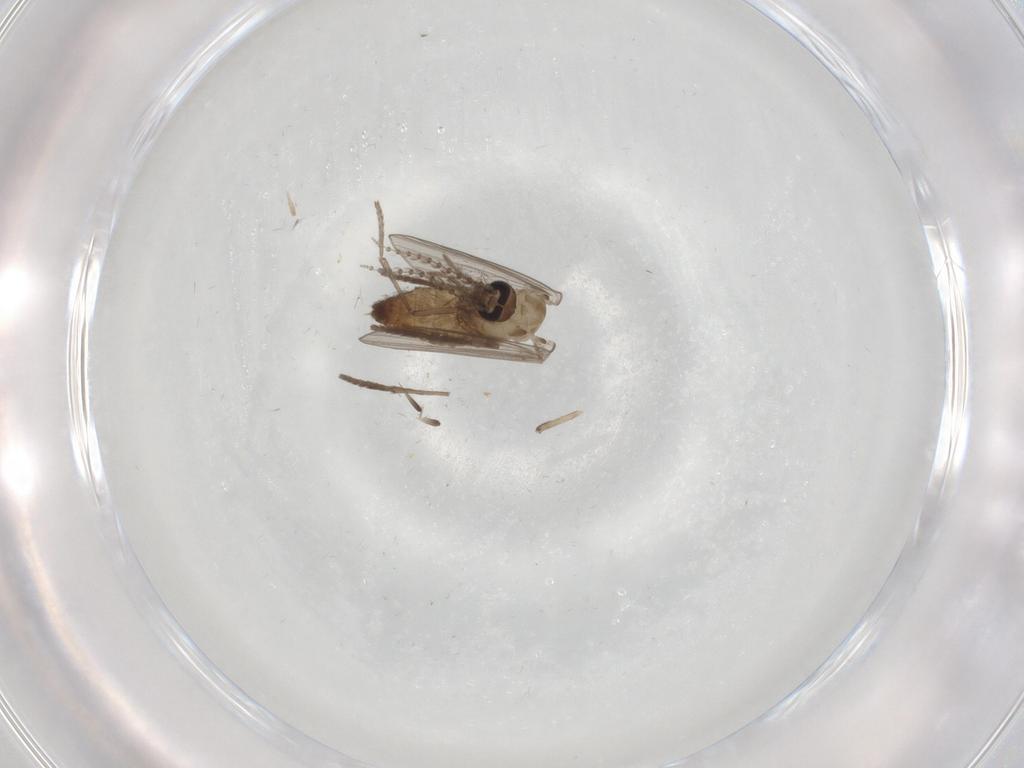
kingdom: Animalia
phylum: Arthropoda
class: Insecta
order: Diptera
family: Psychodidae
